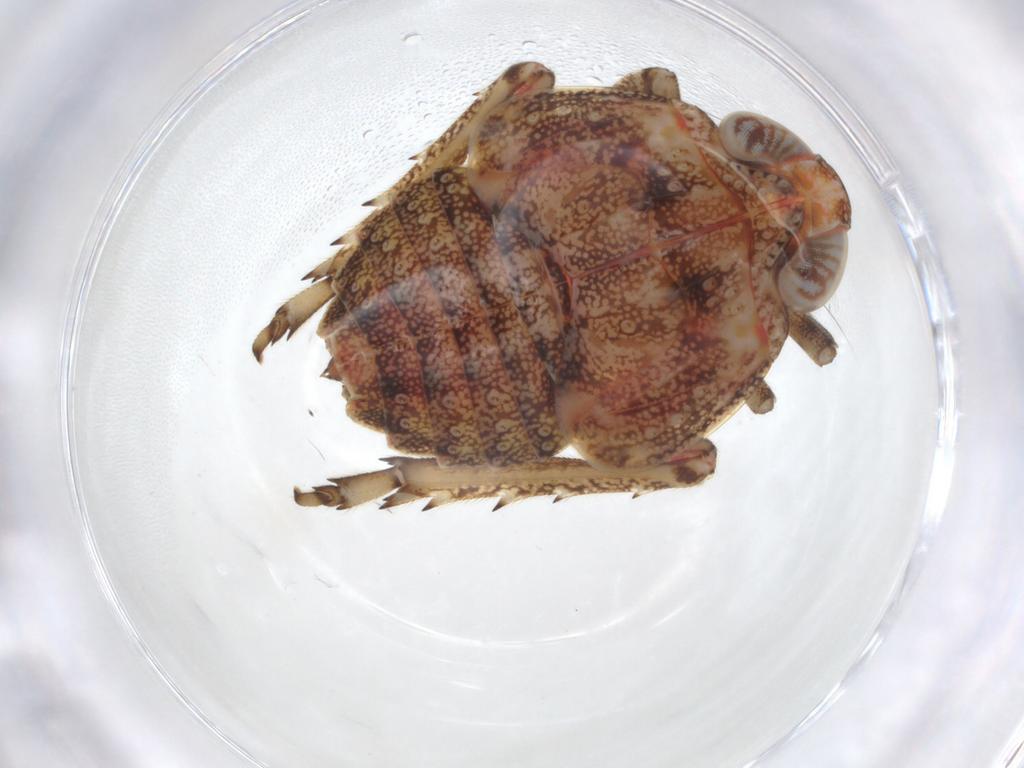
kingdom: Animalia
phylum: Arthropoda
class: Insecta
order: Hemiptera
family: Issidae
